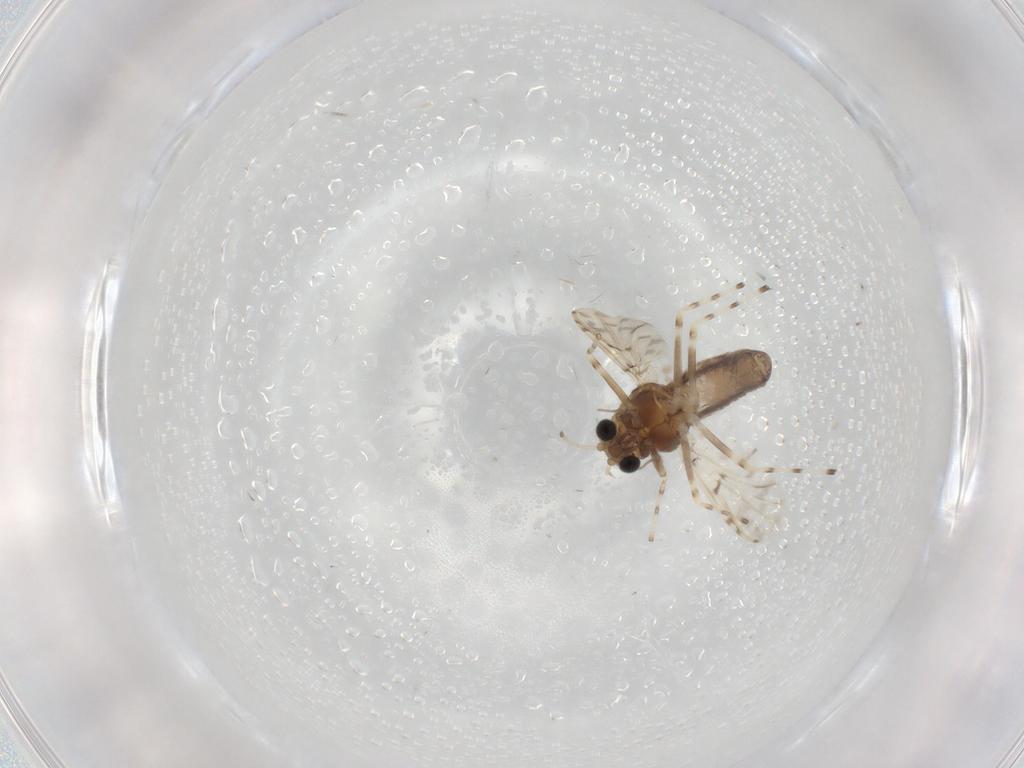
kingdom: Animalia
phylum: Arthropoda
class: Insecta
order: Diptera
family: Chironomidae
